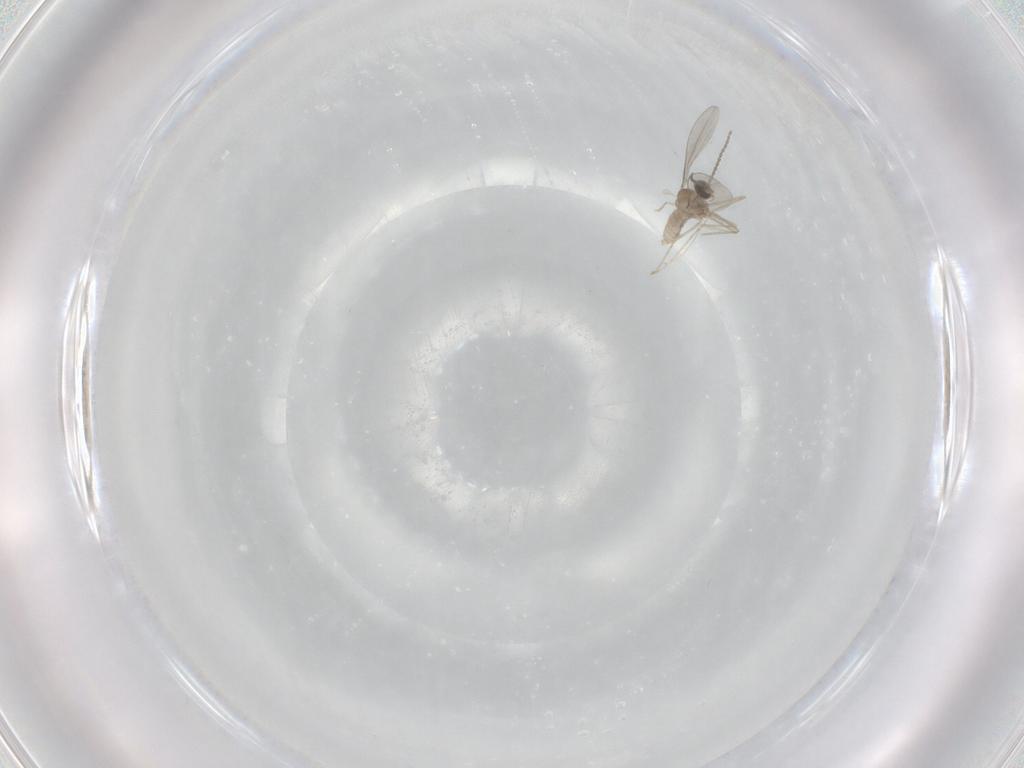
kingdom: Animalia
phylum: Arthropoda
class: Insecta
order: Diptera
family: Cecidomyiidae
